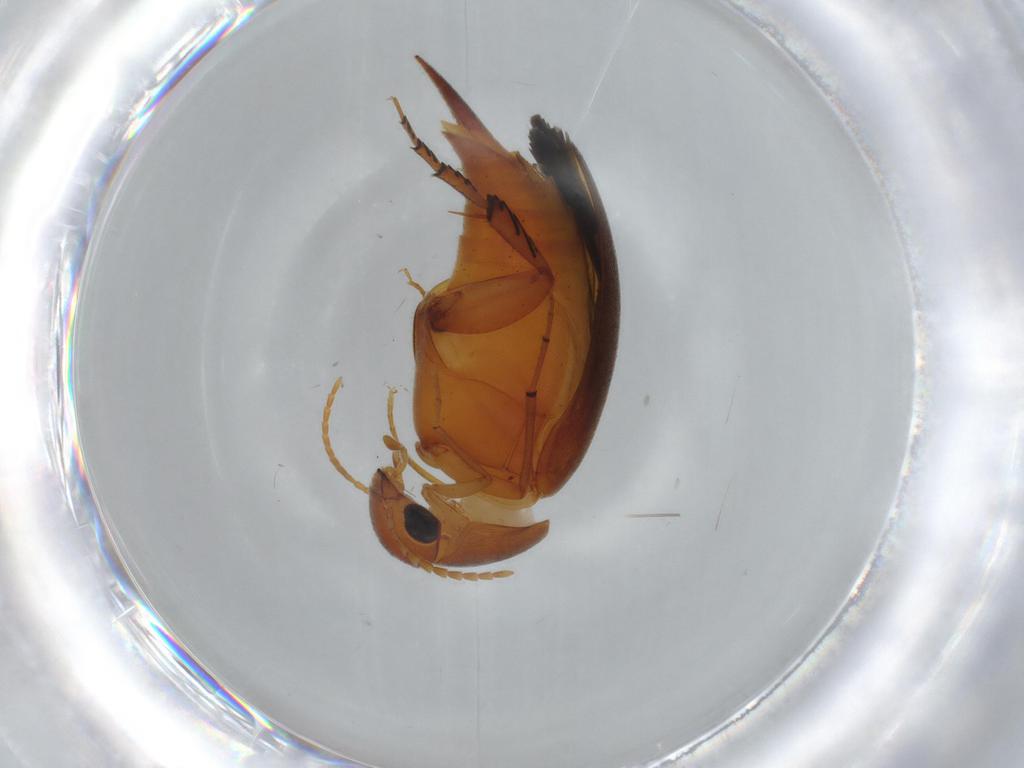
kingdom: Animalia
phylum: Arthropoda
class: Insecta
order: Coleoptera
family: Mordellidae
